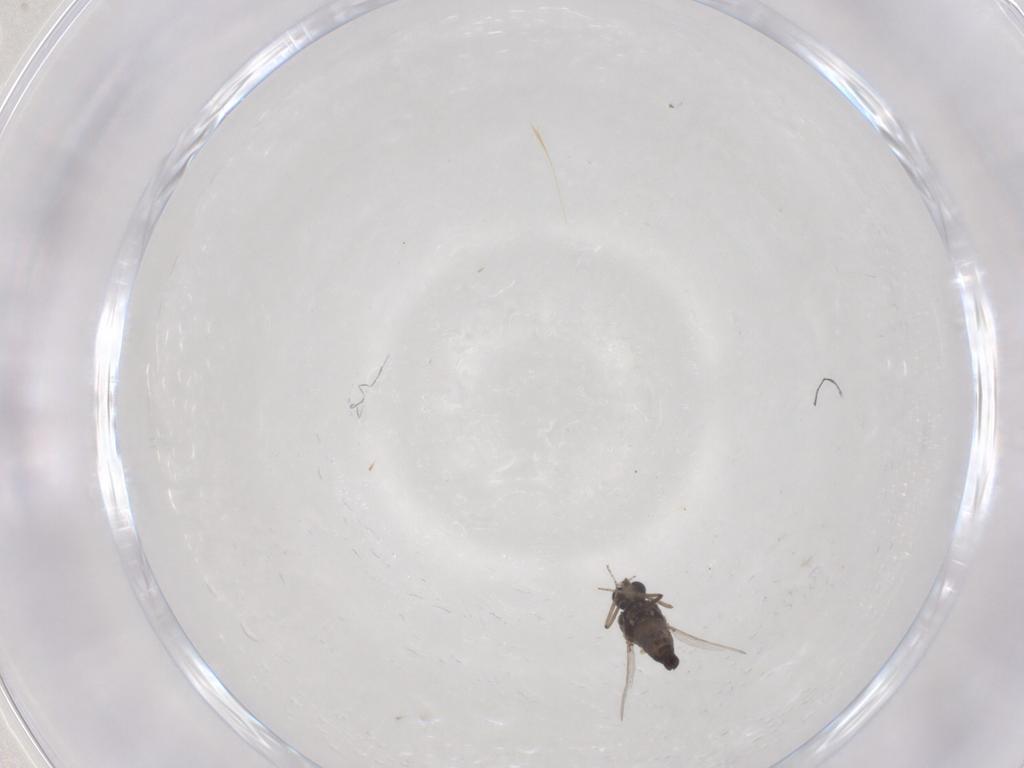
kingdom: Animalia
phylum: Arthropoda
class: Insecta
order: Diptera
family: Ceratopogonidae
